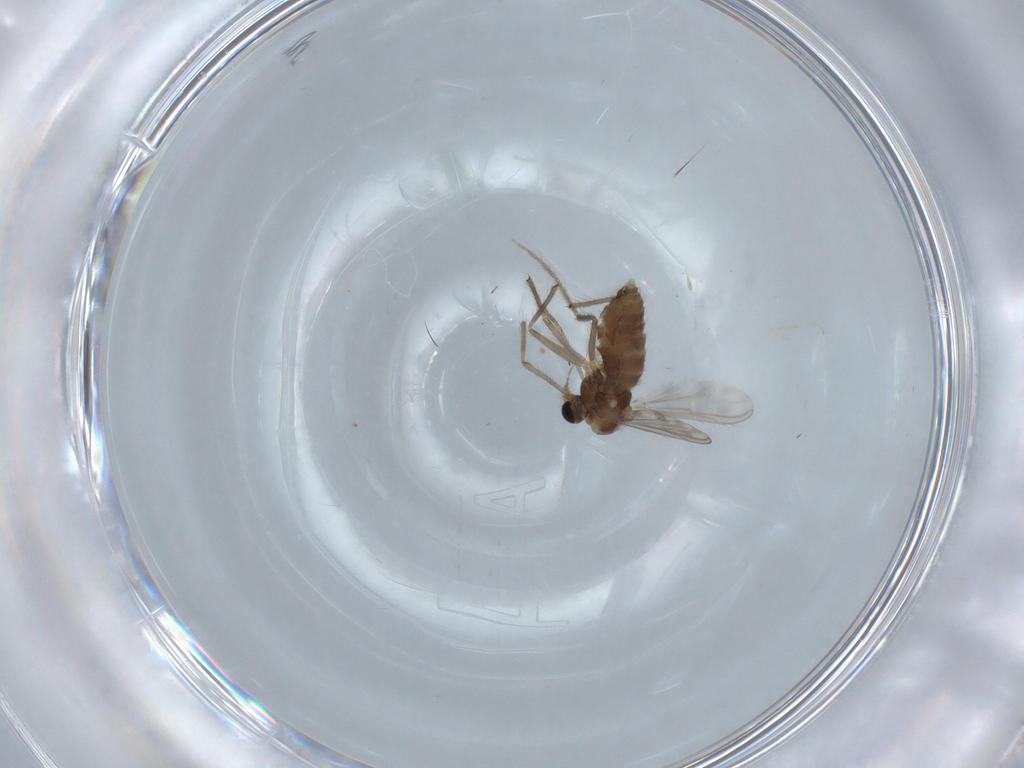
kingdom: Animalia
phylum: Arthropoda
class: Insecta
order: Diptera
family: Chironomidae
